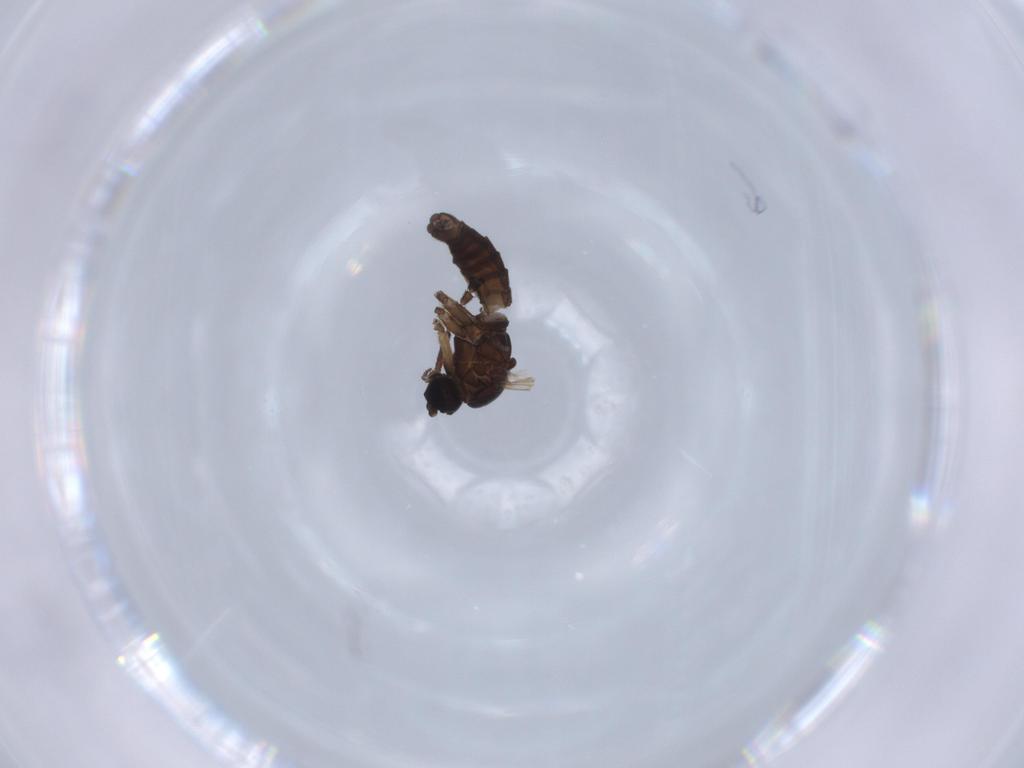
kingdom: Animalia
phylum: Arthropoda
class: Insecta
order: Diptera
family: Sciaridae
